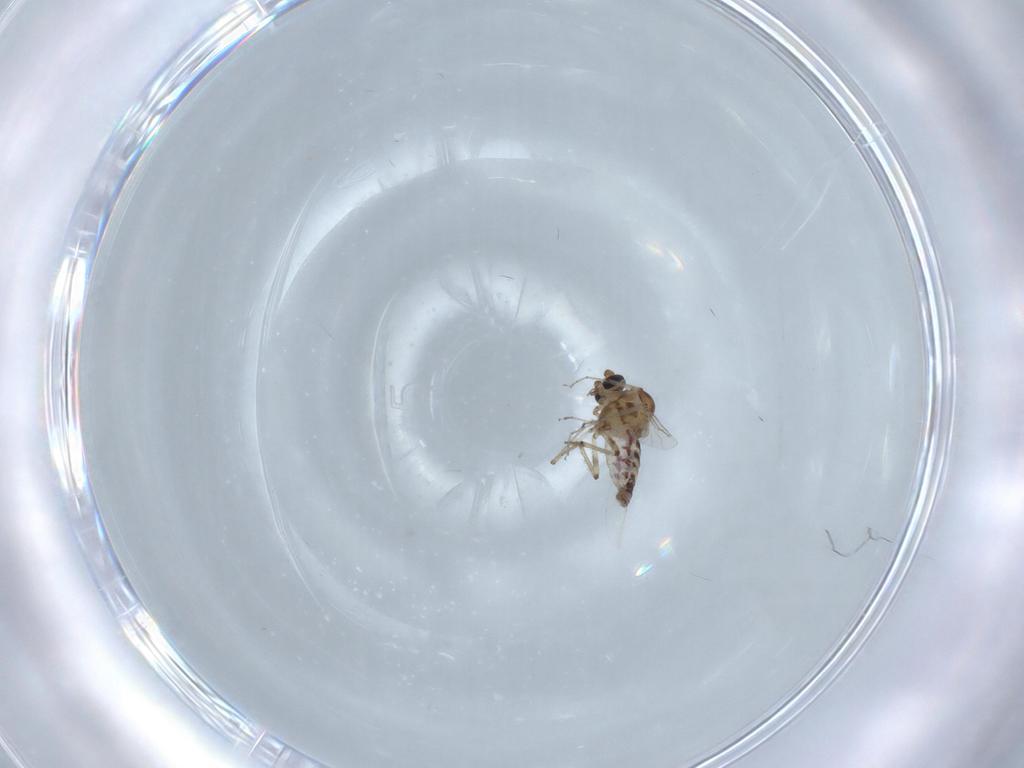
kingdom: Animalia
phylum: Arthropoda
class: Insecta
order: Diptera
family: Ceratopogonidae
